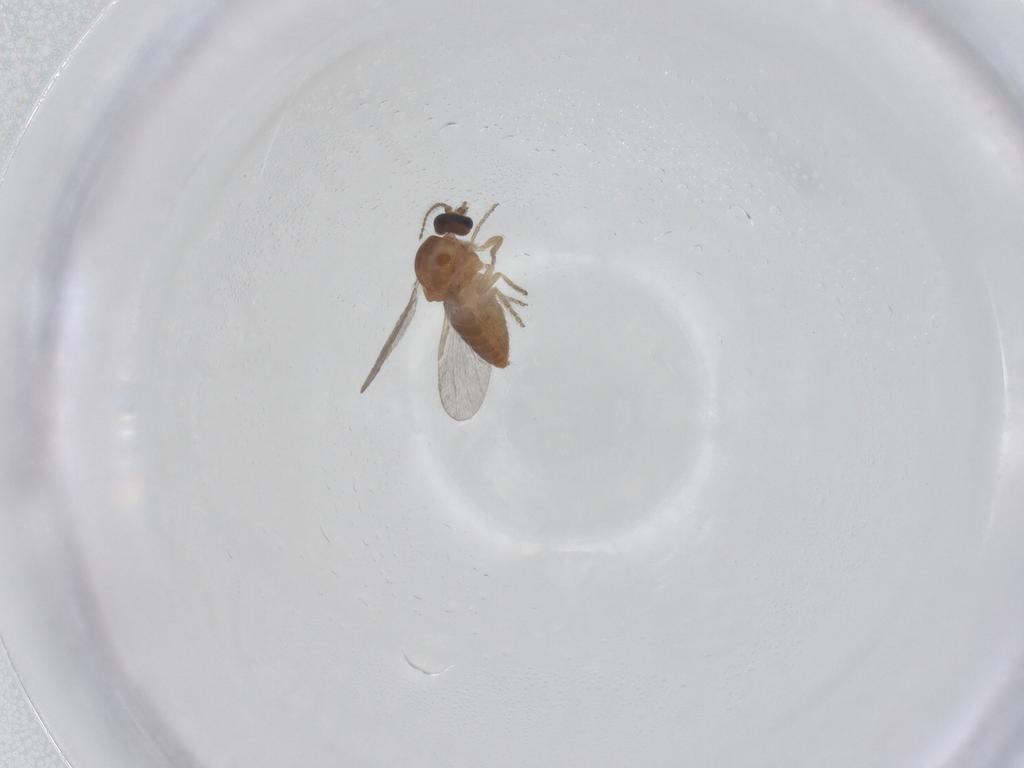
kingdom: Animalia
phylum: Arthropoda
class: Insecta
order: Diptera
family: Ceratopogonidae
